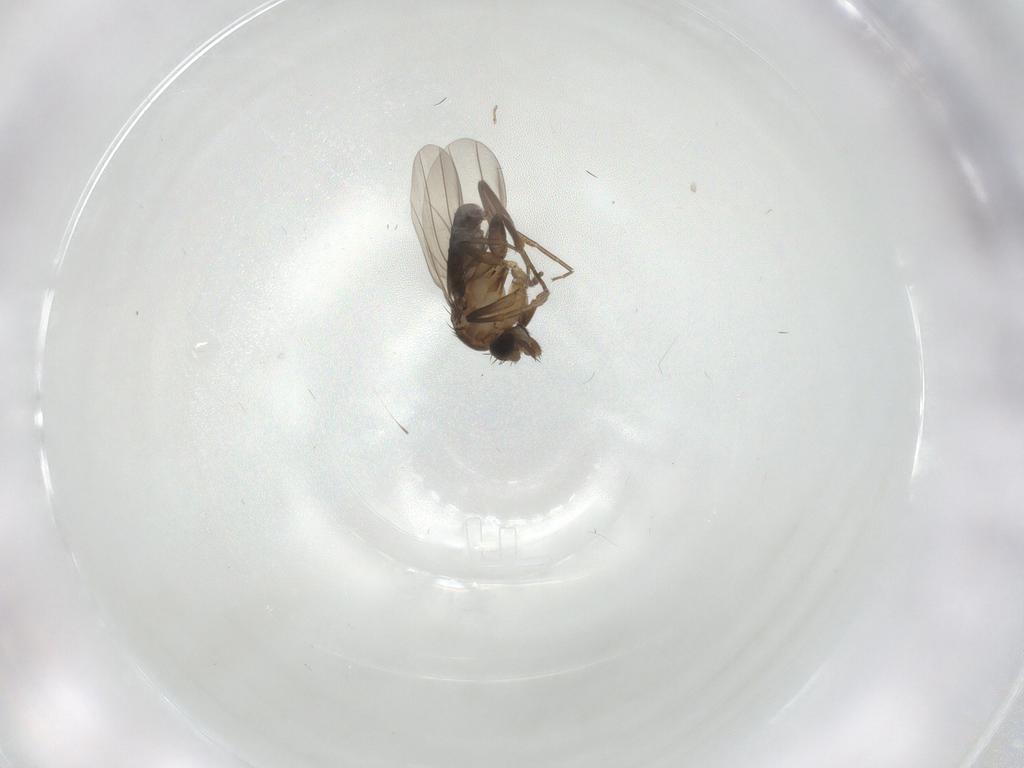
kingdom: Animalia
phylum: Arthropoda
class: Insecta
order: Diptera
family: Phoridae
